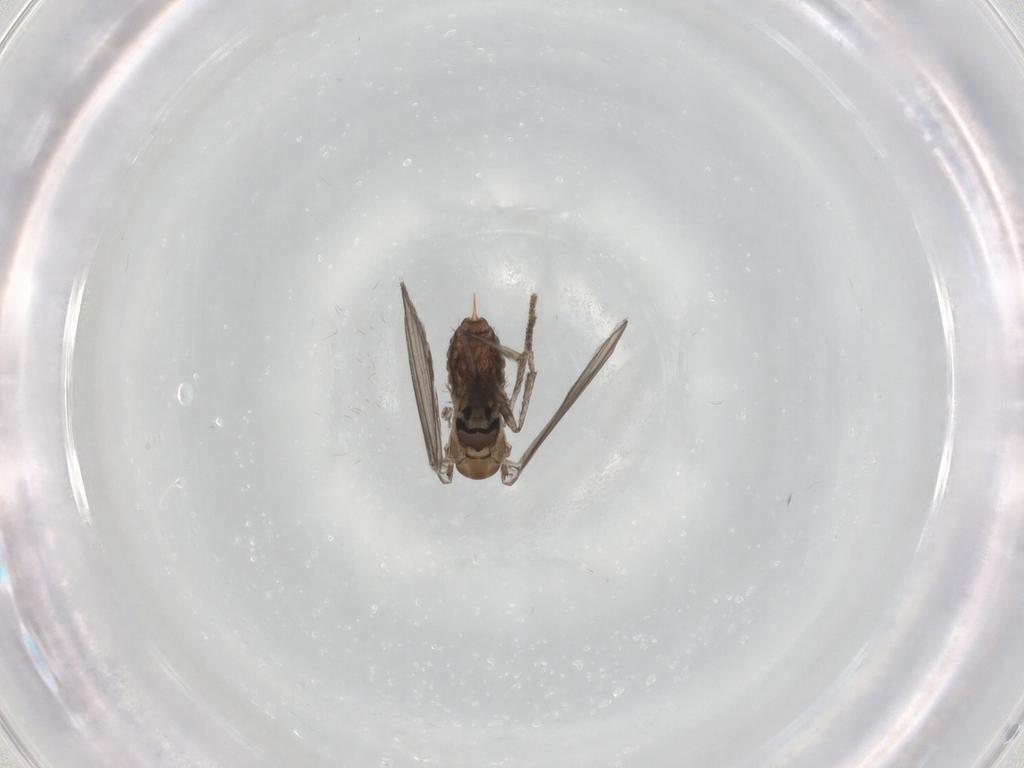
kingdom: Animalia
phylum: Arthropoda
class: Insecta
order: Diptera
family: Psychodidae
